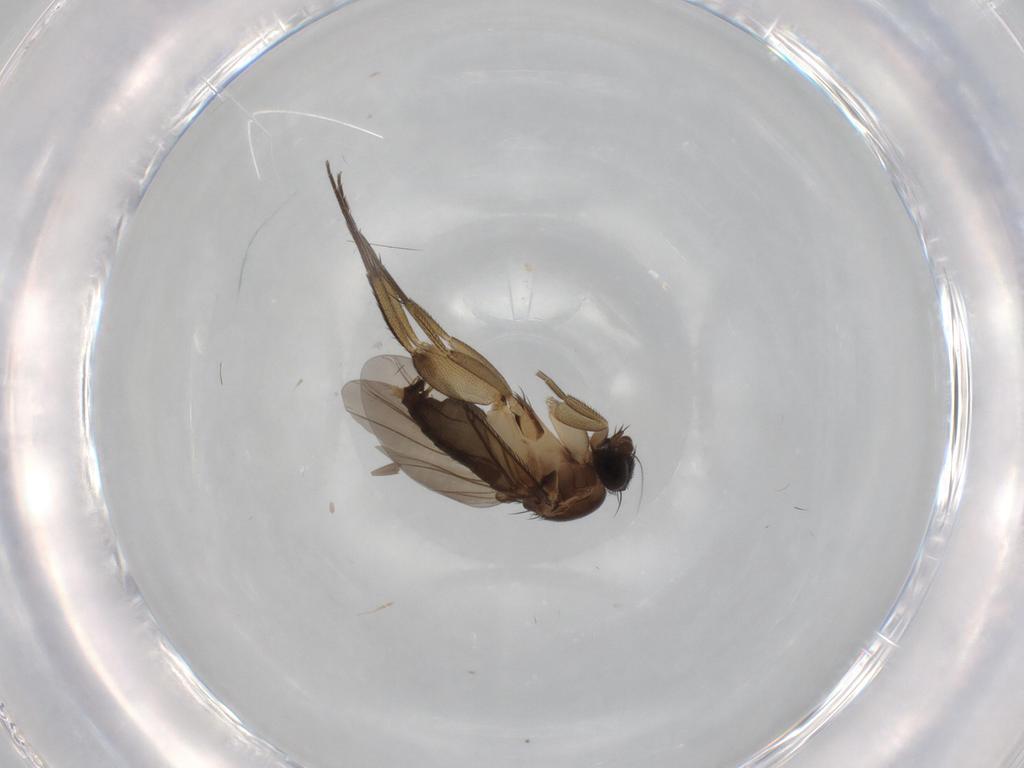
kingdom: Animalia
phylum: Arthropoda
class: Insecta
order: Diptera
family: Phoridae
